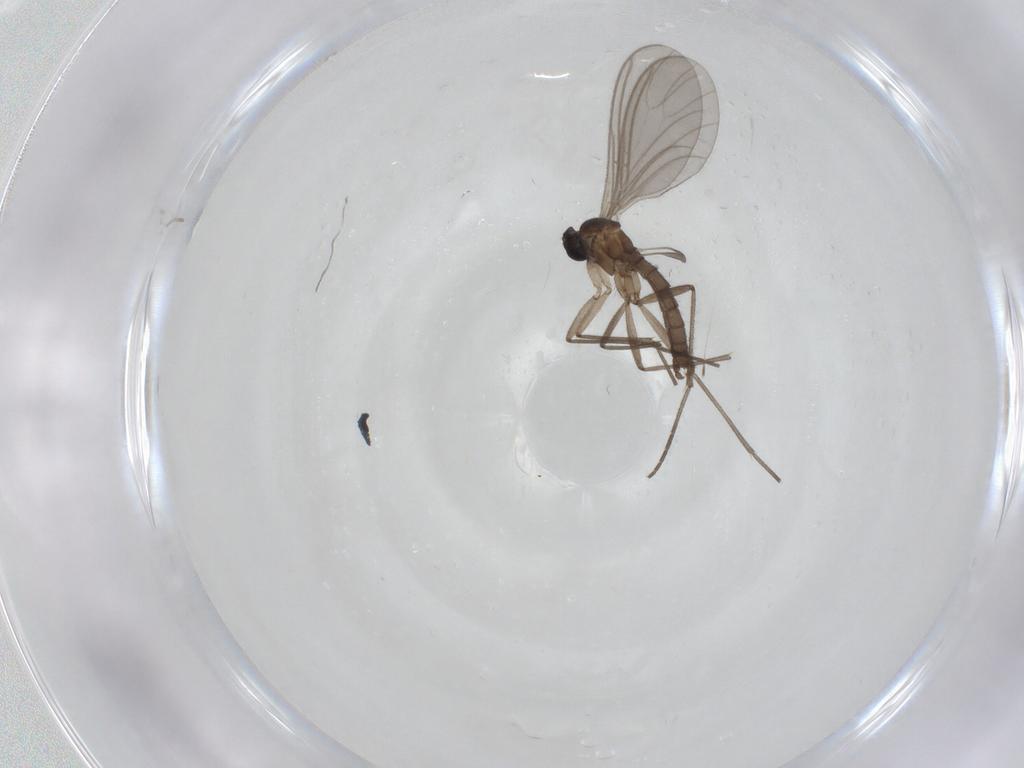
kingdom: Animalia
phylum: Arthropoda
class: Insecta
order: Diptera
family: Sciaridae
